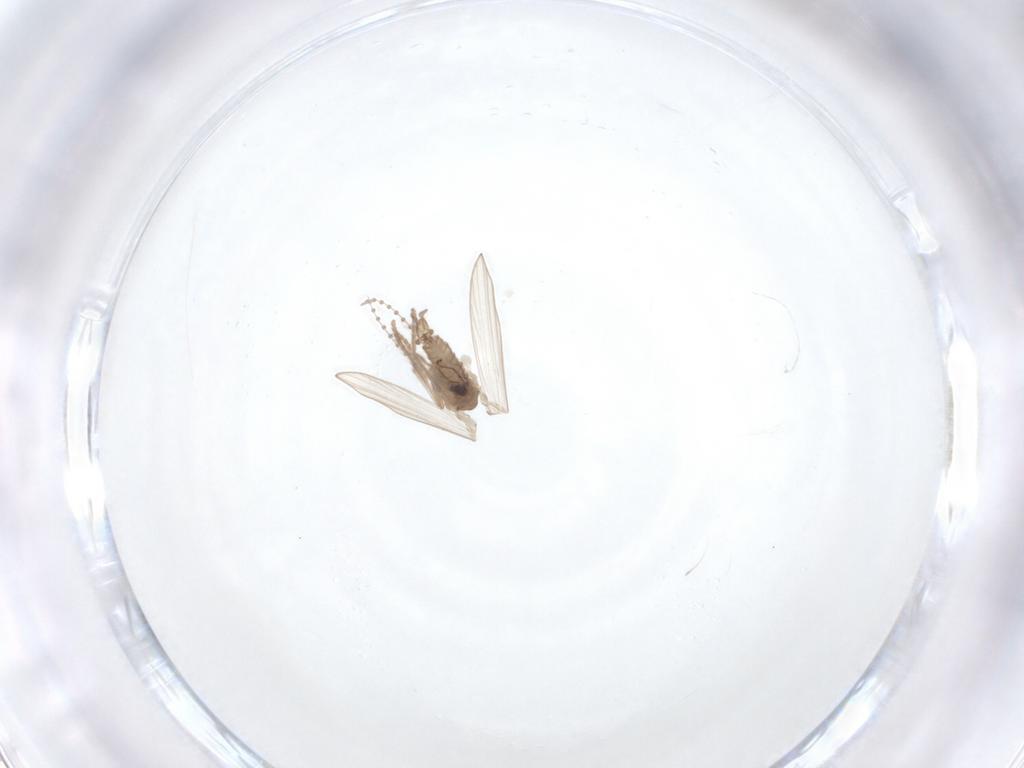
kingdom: Animalia
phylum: Arthropoda
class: Insecta
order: Diptera
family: Psychodidae
